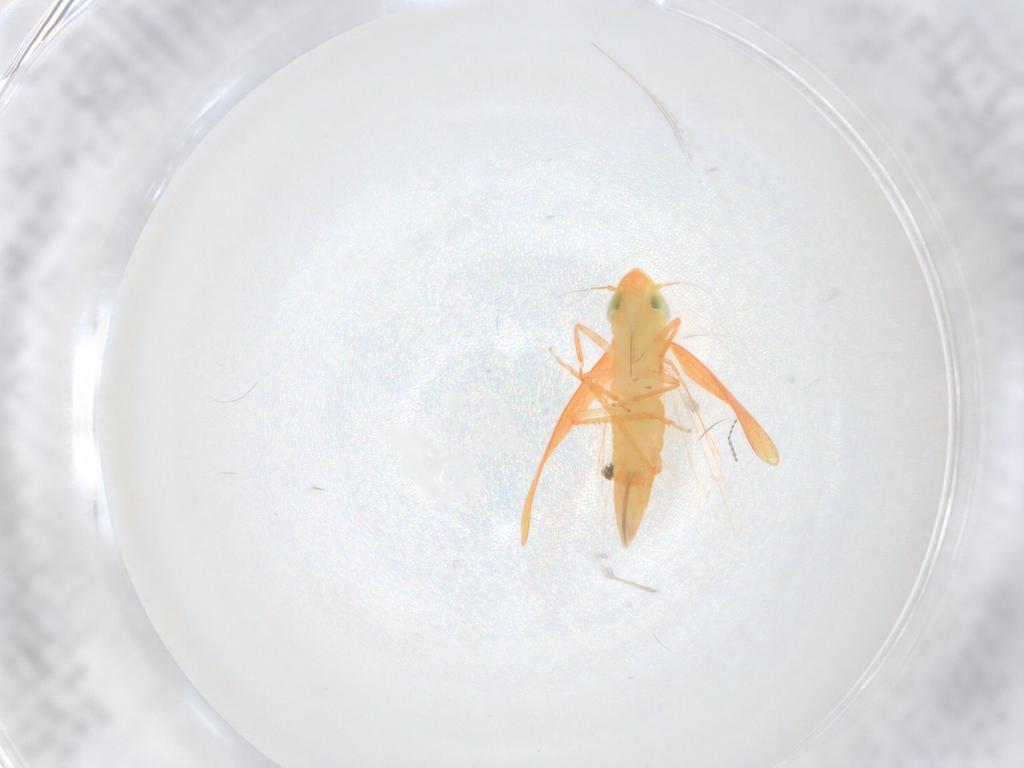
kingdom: Animalia
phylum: Arthropoda
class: Insecta
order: Hemiptera
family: Cicadellidae
